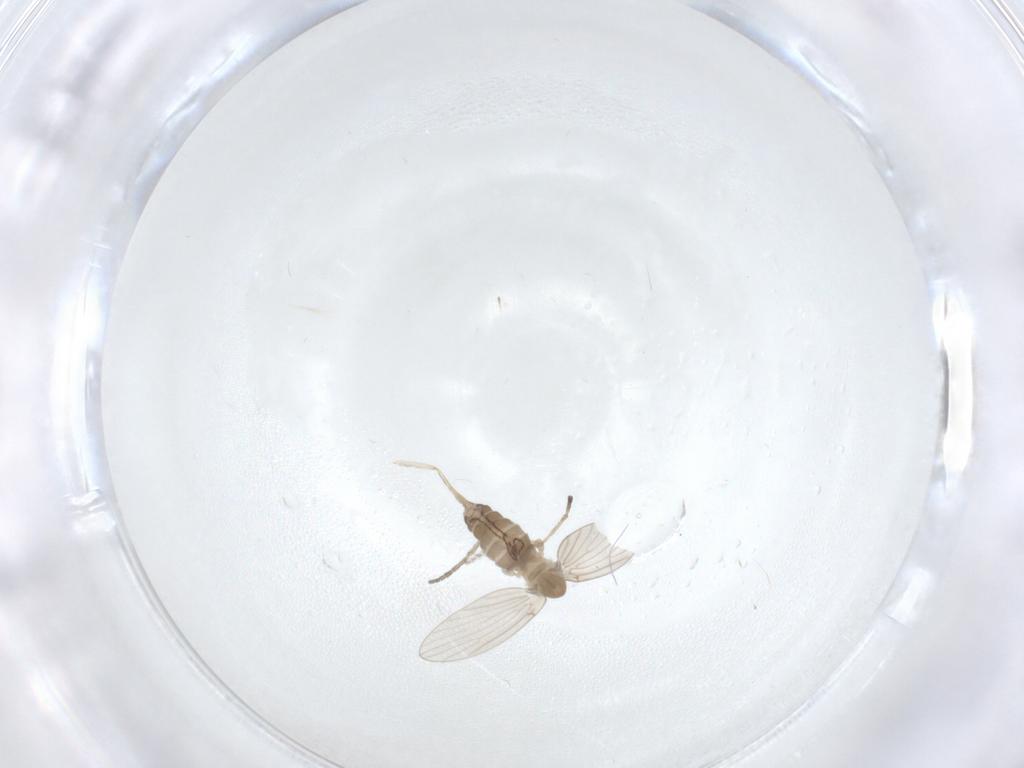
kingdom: Animalia
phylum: Arthropoda
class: Insecta
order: Diptera
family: Psychodidae
